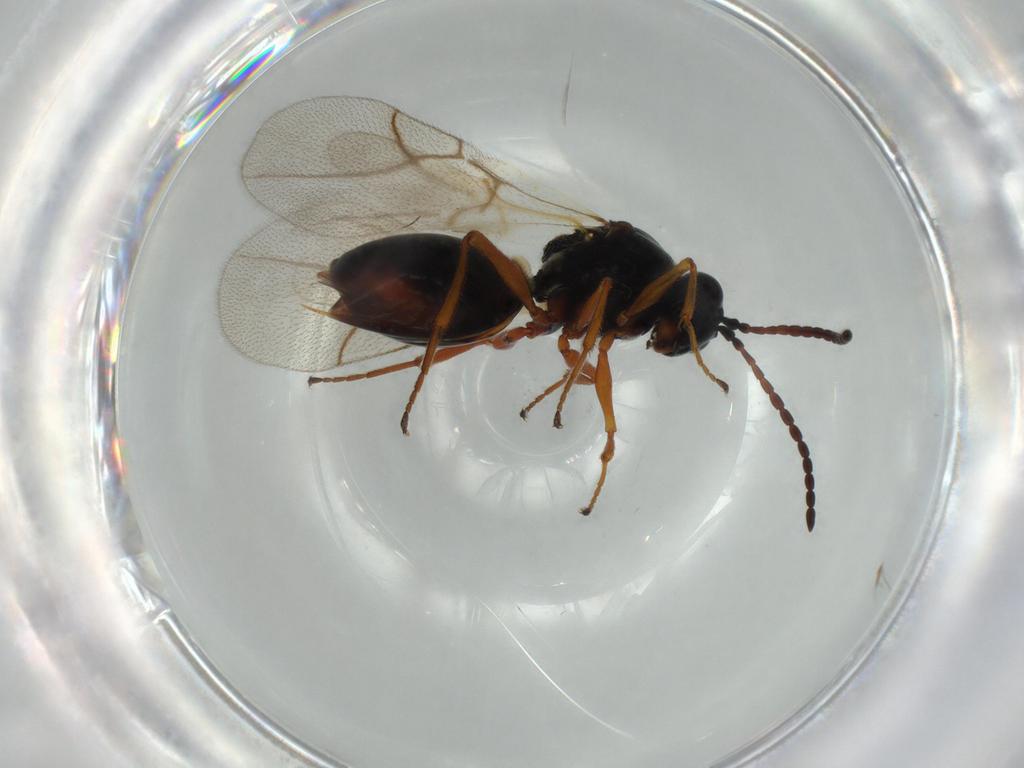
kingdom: Animalia
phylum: Arthropoda
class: Insecta
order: Hymenoptera
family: Figitidae
